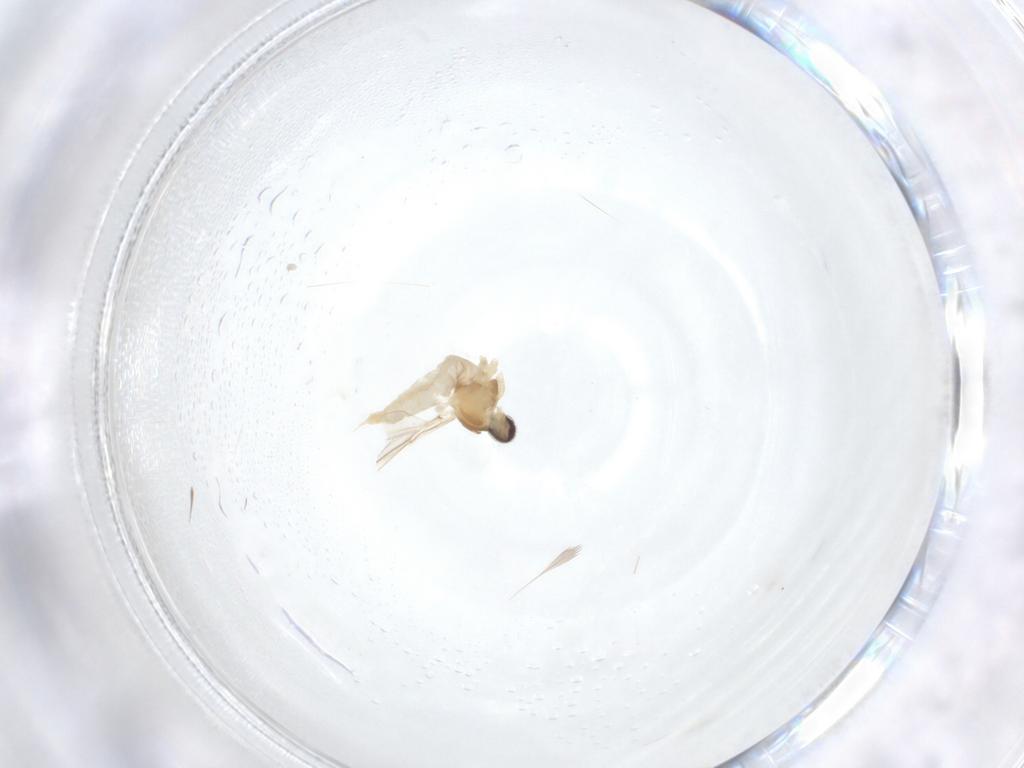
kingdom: Animalia
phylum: Arthropoda
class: Insecta
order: Diptera
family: Cecidomyiidae
